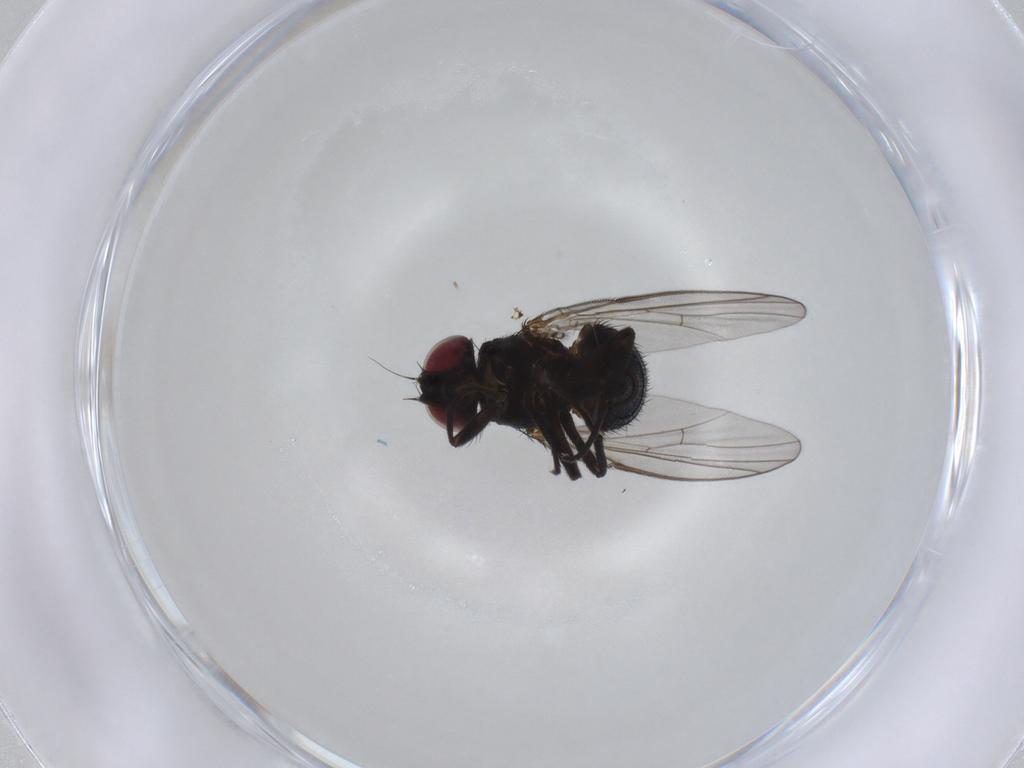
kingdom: Animalia
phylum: Arthropoda
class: Insecta
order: Diptera
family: Agromyzidae
